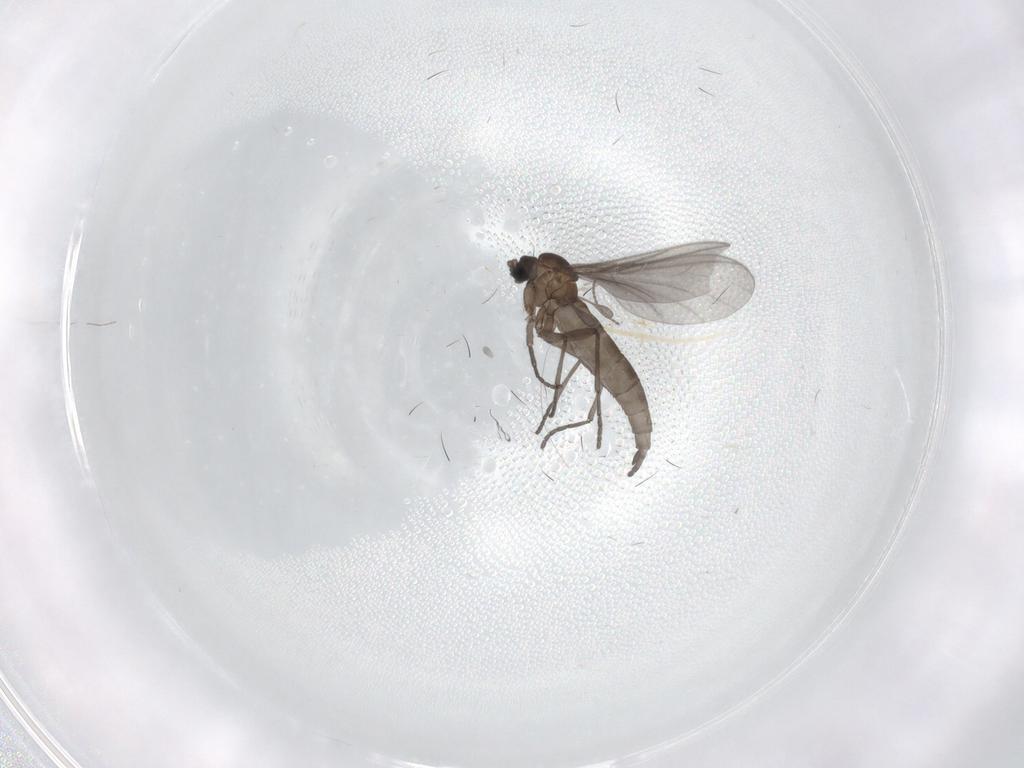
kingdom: Animalia
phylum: Arthropoda
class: Insecta
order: Diptera
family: Sciaridae
